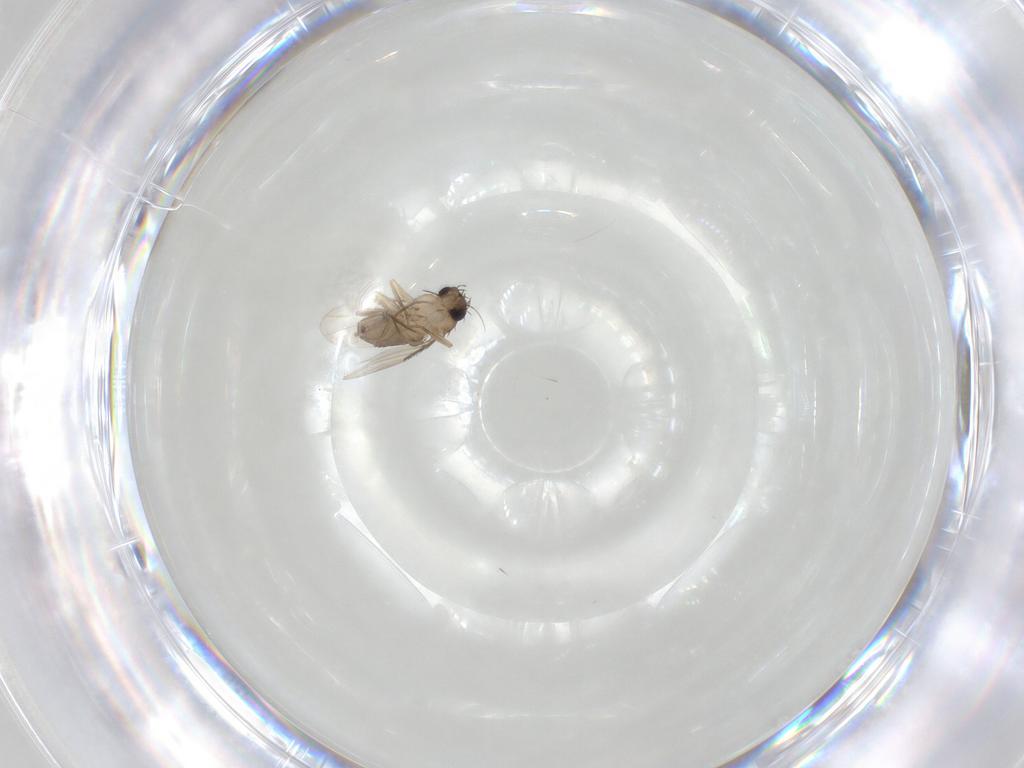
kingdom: Animalia
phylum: Arthropoda
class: Insecta
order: Diptera
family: Phoridae
